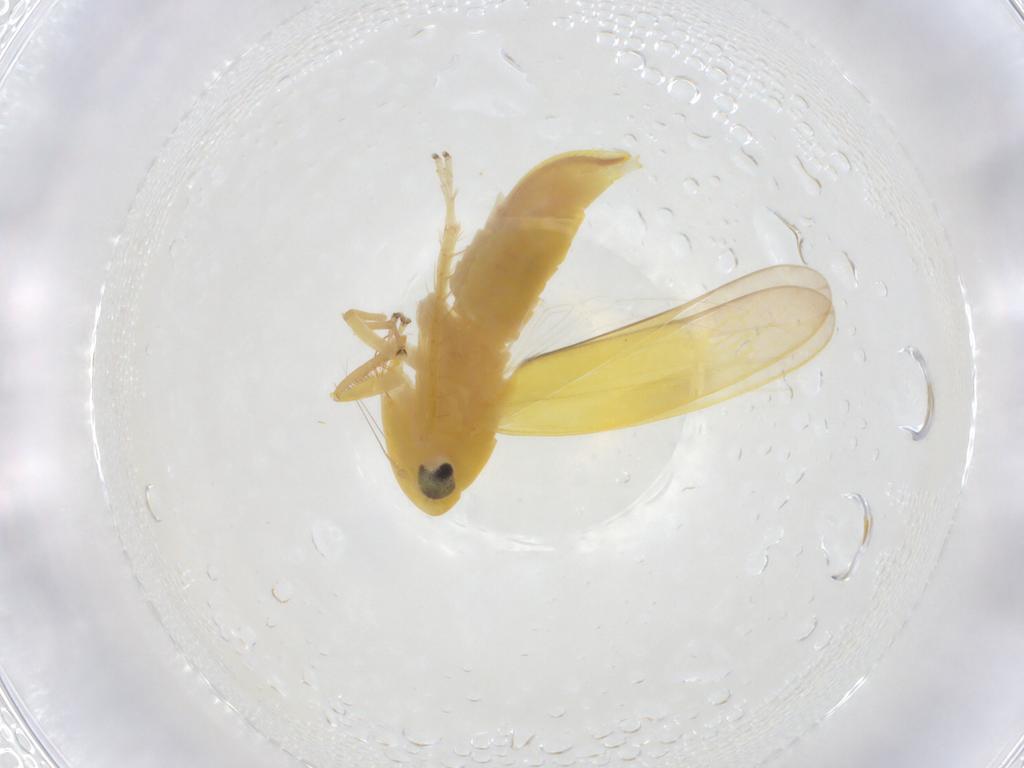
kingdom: Animalia
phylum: Arthropoda
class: Insecta
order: Hemiptera
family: Cicadellidae
